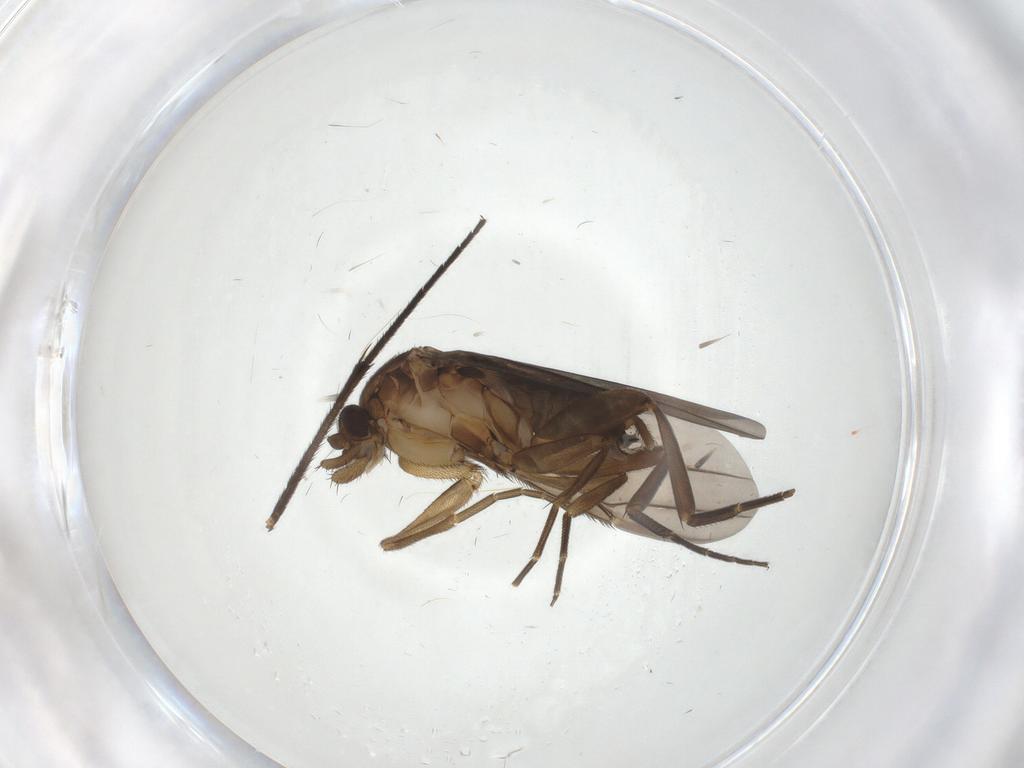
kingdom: Animalia
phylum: Arthropoda
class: Insecta
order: Diptera
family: Phoridae
